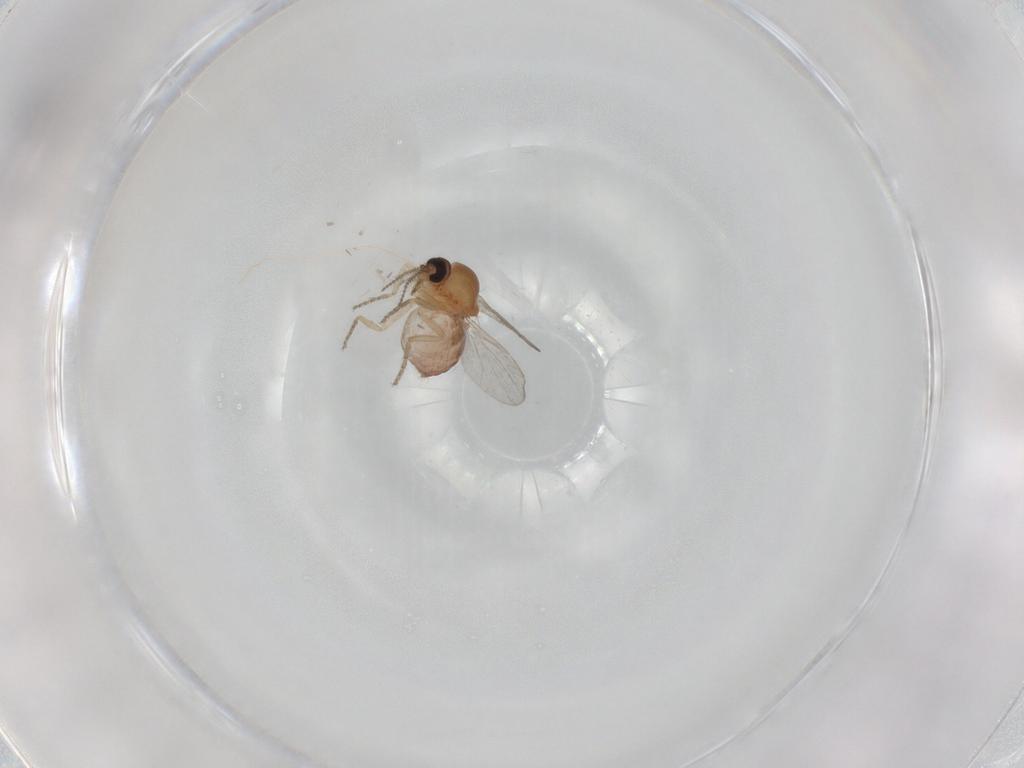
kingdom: Animalia
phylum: Arthropoda
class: Insecta
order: Diptera
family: Ceratopogonidae
